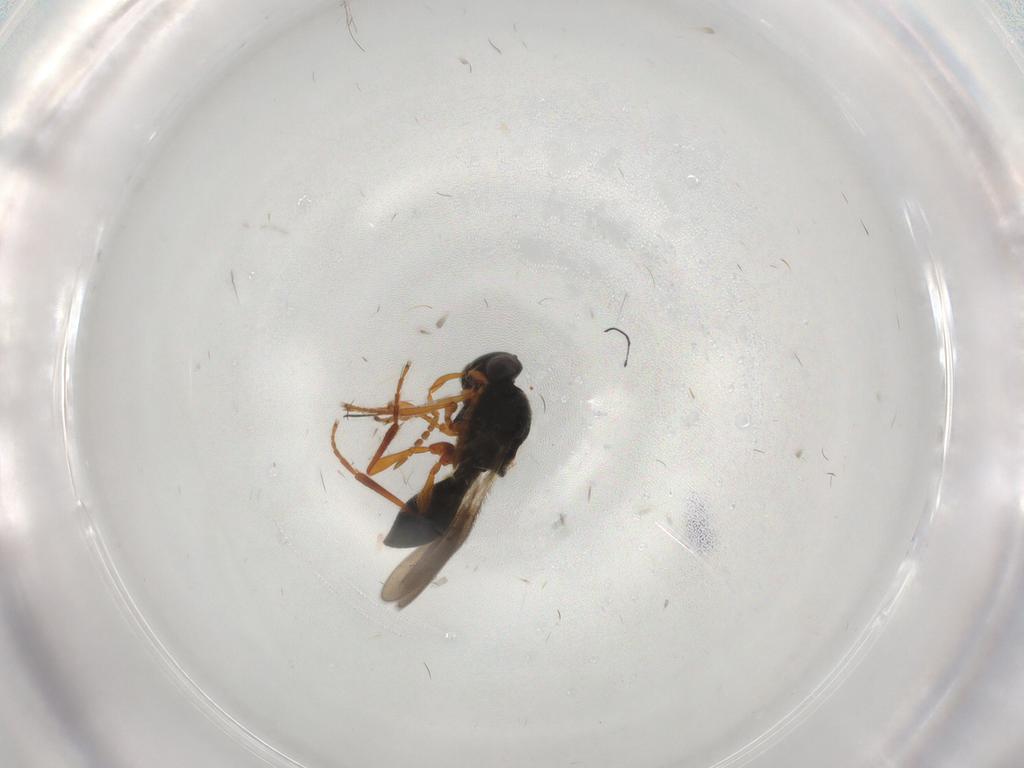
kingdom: Animalia
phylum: Arthropoda
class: Insecta
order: Hymenoptera
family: Platygastridae
